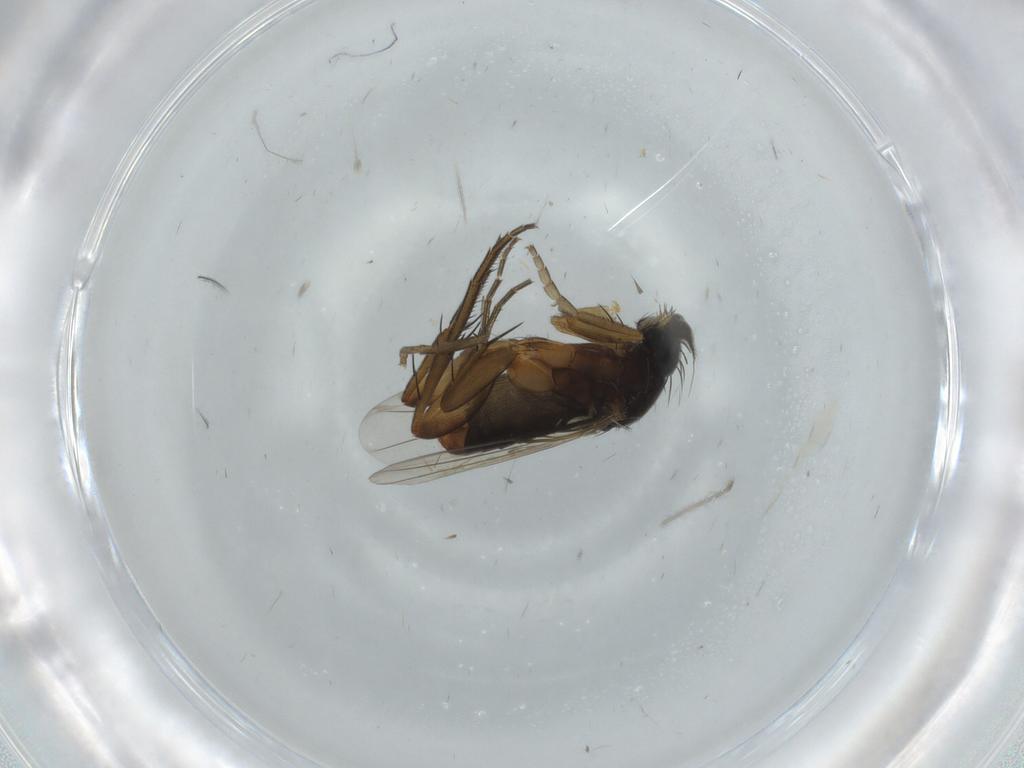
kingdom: Animalia
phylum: Arthropoda
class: Insecta
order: Diptera
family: Phoridae
